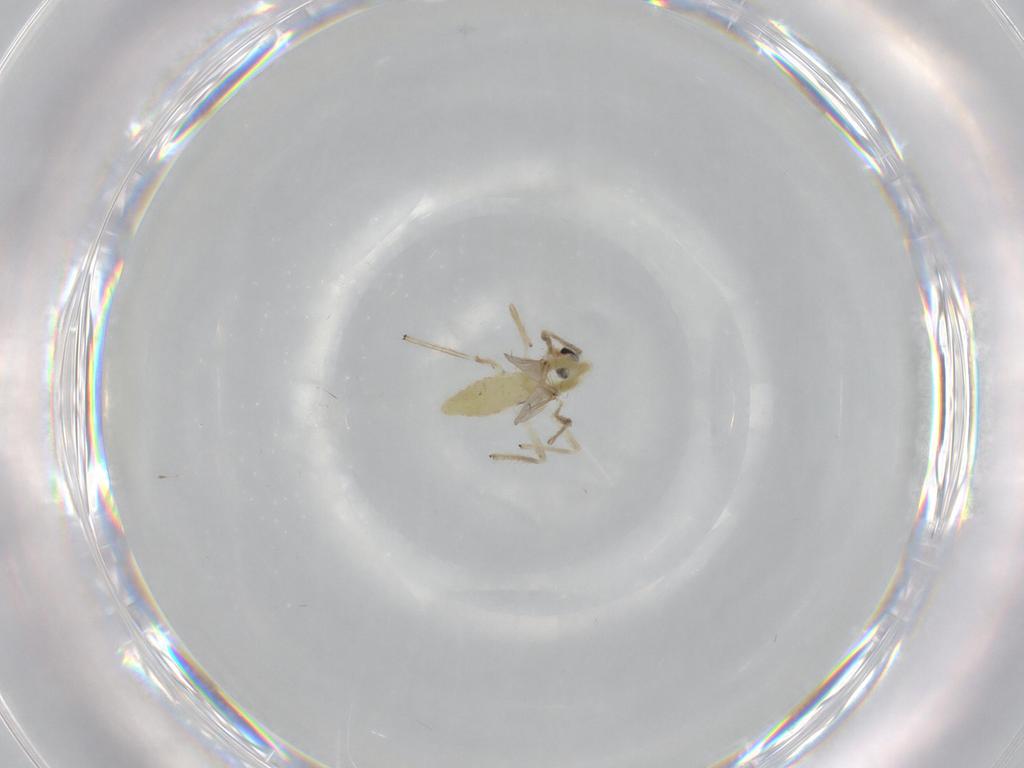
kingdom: Animalia
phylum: Arthropoda
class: Insecta
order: Diptera
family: Chironomidae
